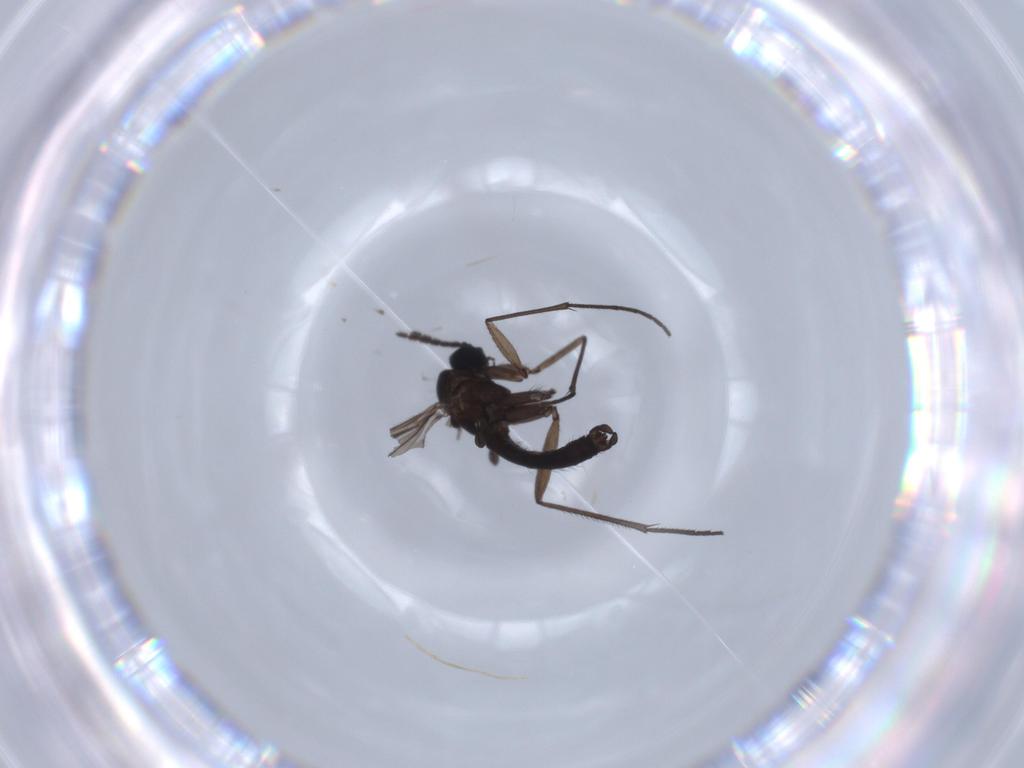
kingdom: Animalia
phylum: Arthropoda
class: Insecta
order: Diptera
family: Sciaridae
